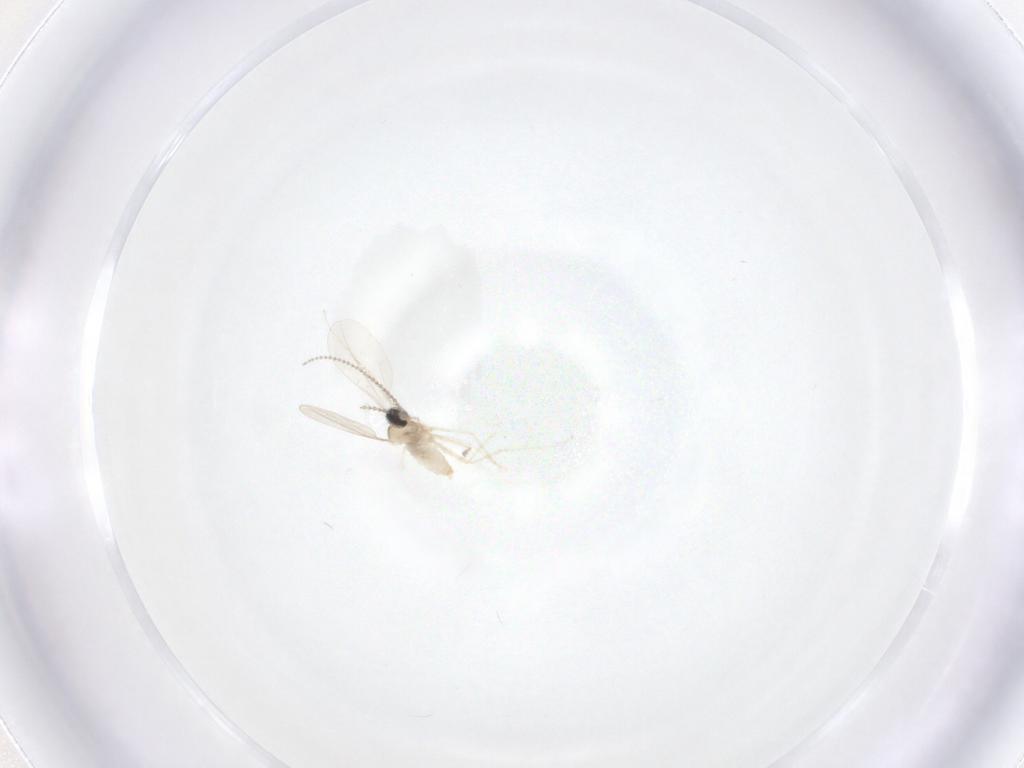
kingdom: Animalia
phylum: Arthropoda
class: Insecta
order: Diptera
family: Cecidomyiidae
